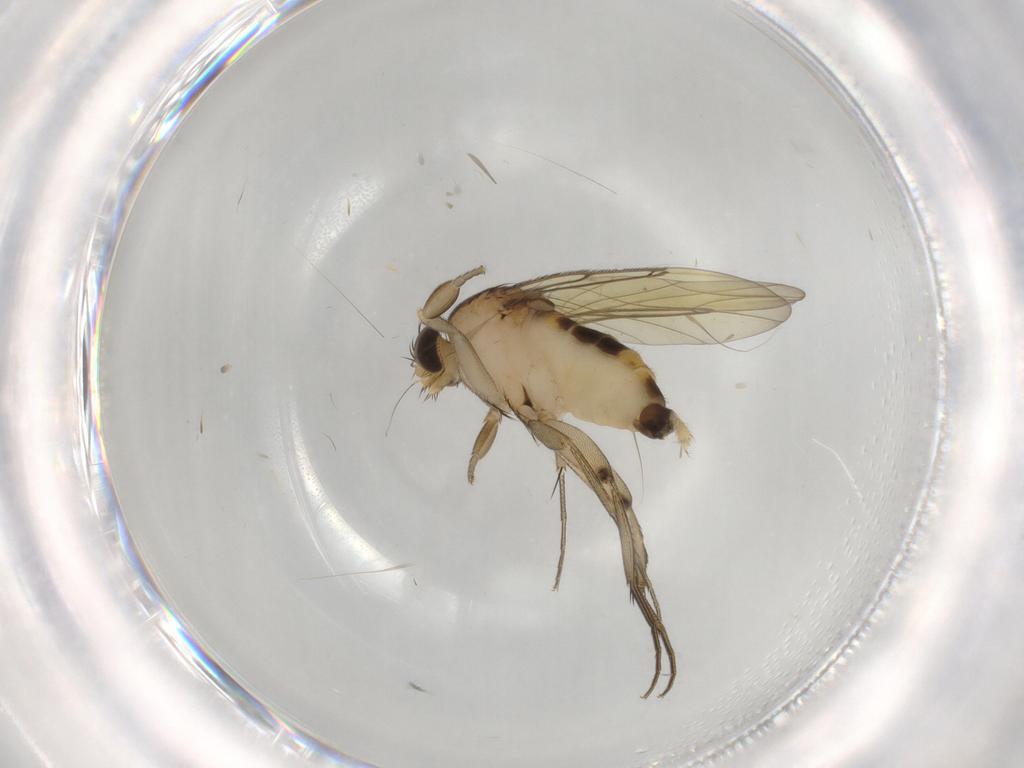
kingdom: Animalia
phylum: Arthropoda
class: Insecta
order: Diptera
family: Phoridae
